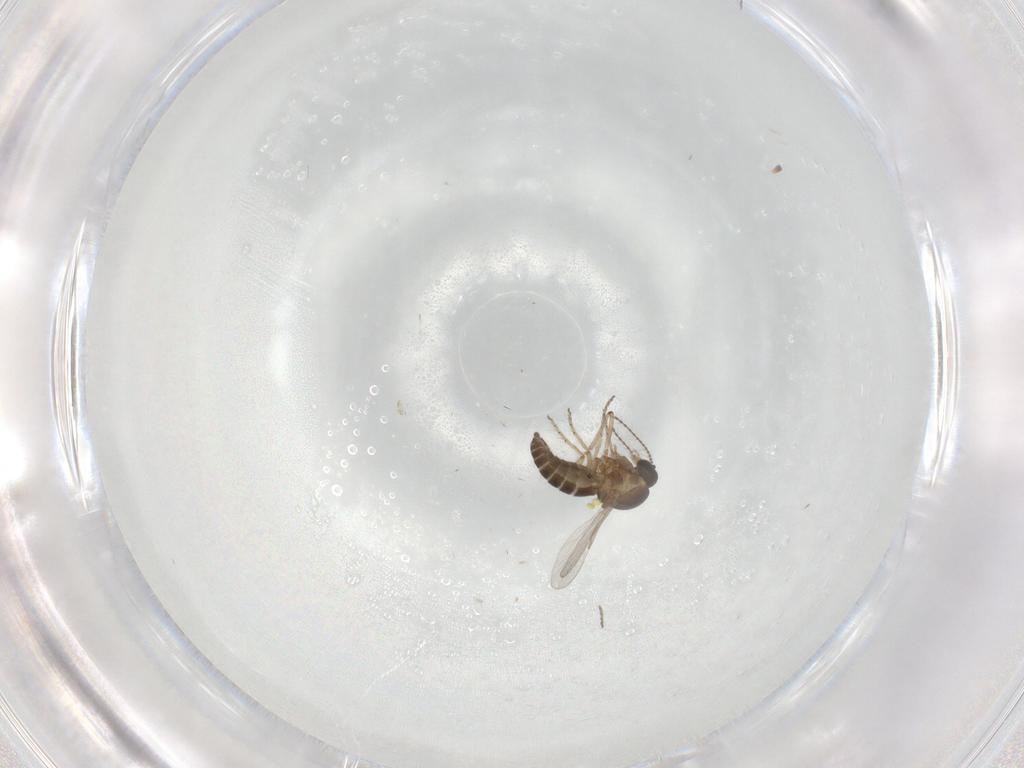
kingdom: Animalia
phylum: Arthropoda
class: Insecta
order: Diptera
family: Ceratopogonidae
